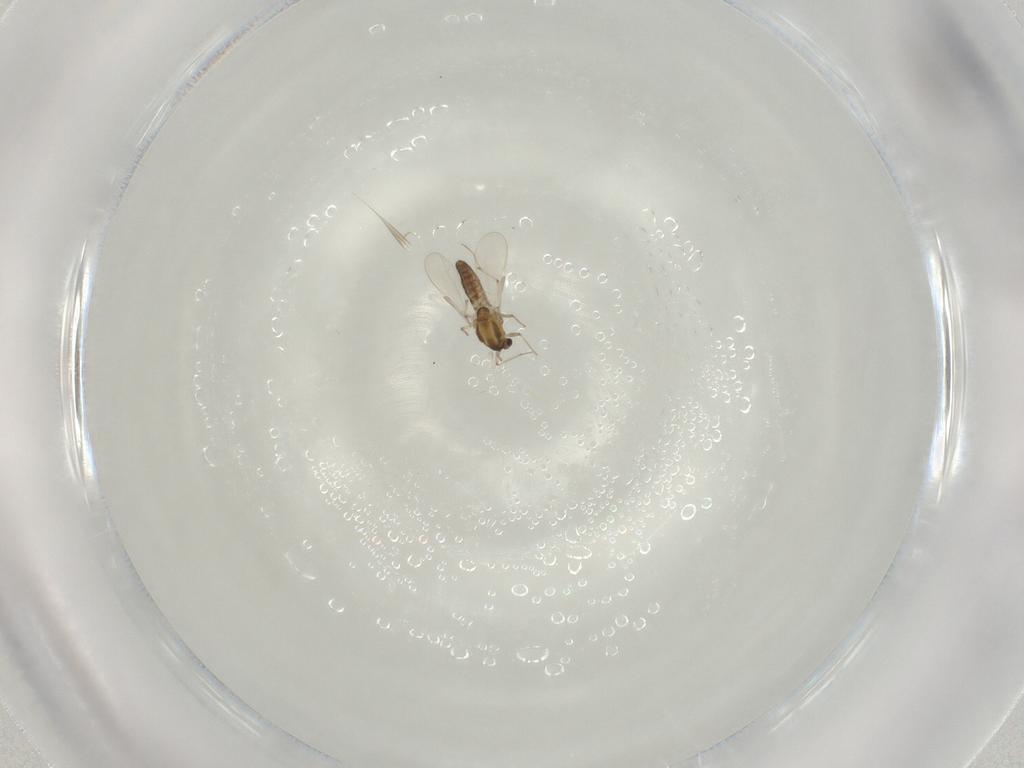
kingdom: Animalia
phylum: Arthropoda
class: Insecta
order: Diptera
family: Chironomidae
